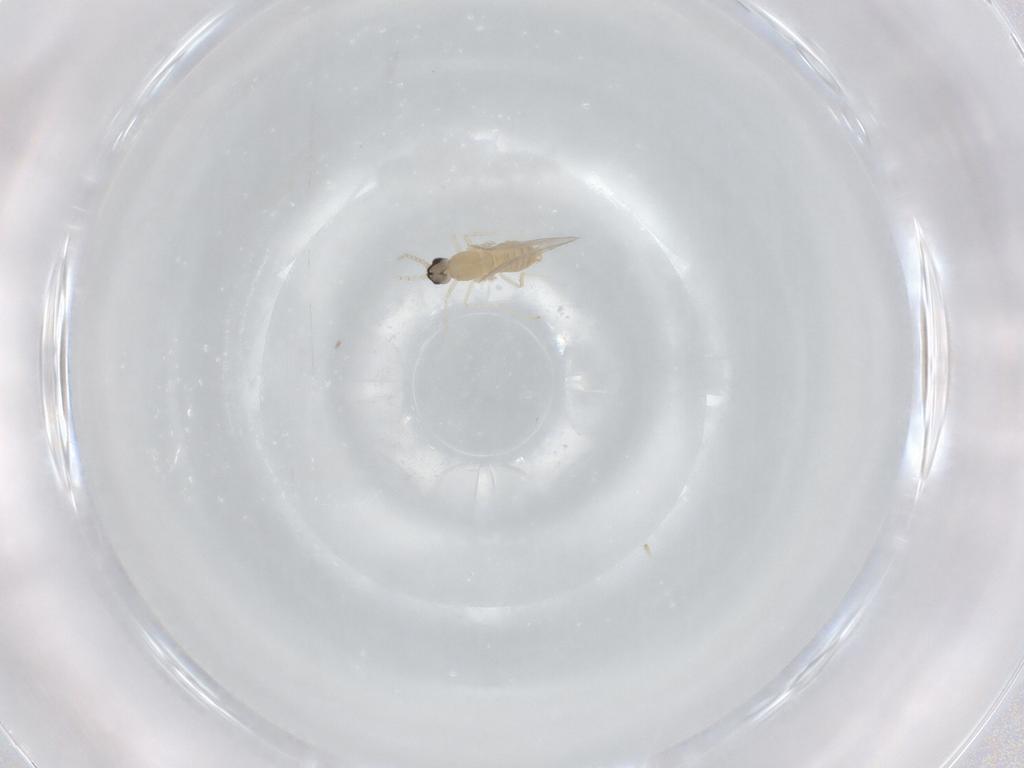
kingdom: Animalia
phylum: Arthropoda
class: Insecta
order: Diptera
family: Cecidomyiidae
